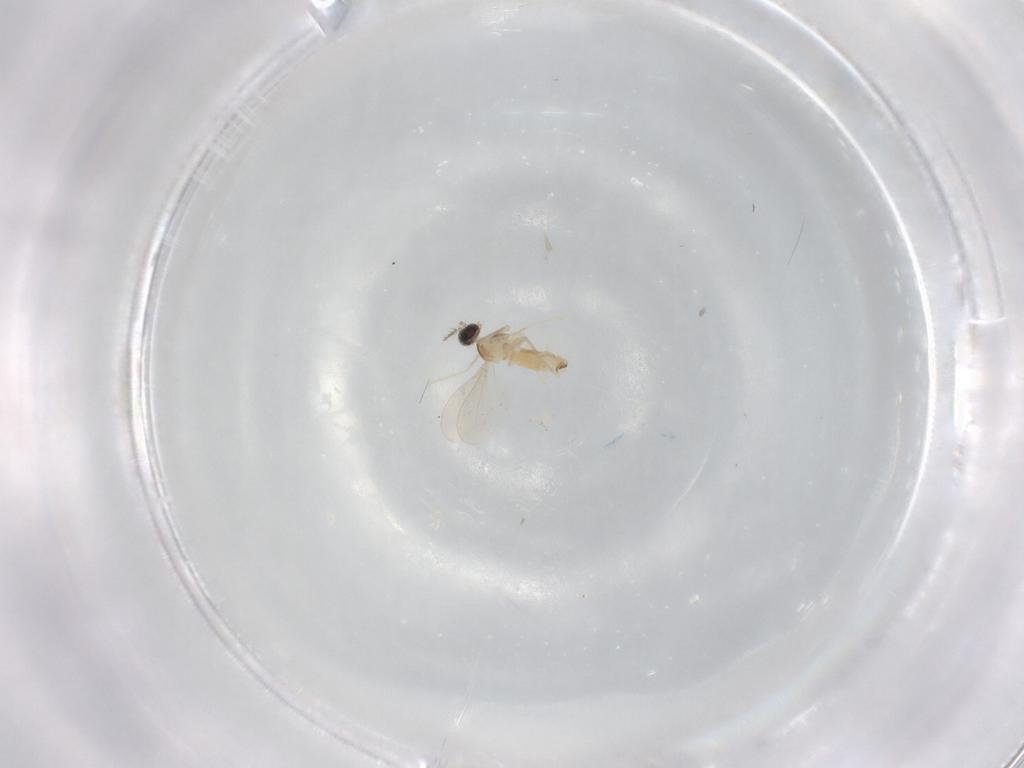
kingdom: Animalia
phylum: Arthropoda
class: Insecta
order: Diptera
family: Cecidomyiidae
